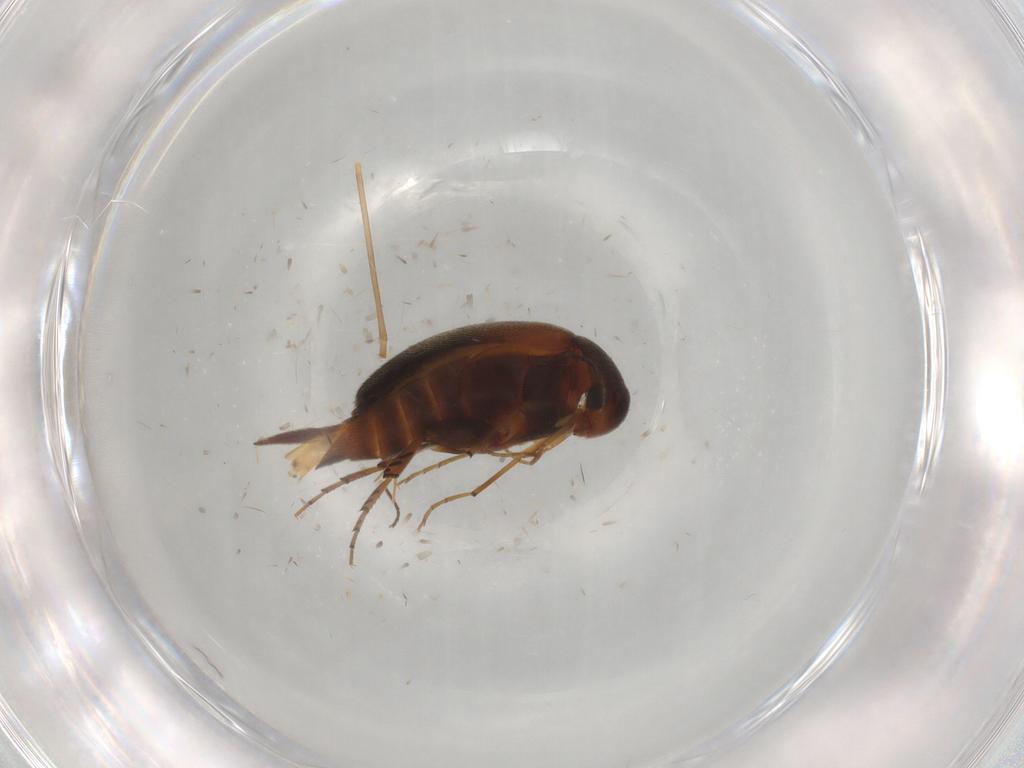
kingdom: Animalia
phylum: Arthropoda
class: Insecta
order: Coleoptera
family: Mordellidae
